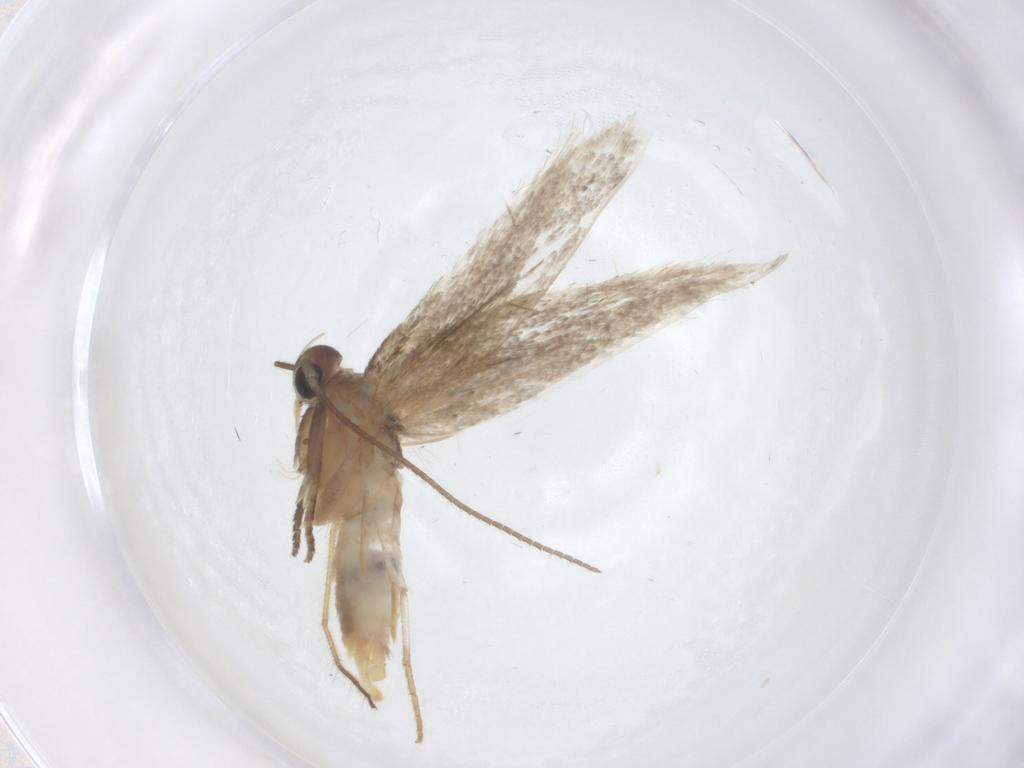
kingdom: Animalia
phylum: Arthropoda
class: Insecta
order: Lepidoptera
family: Elachistidae
